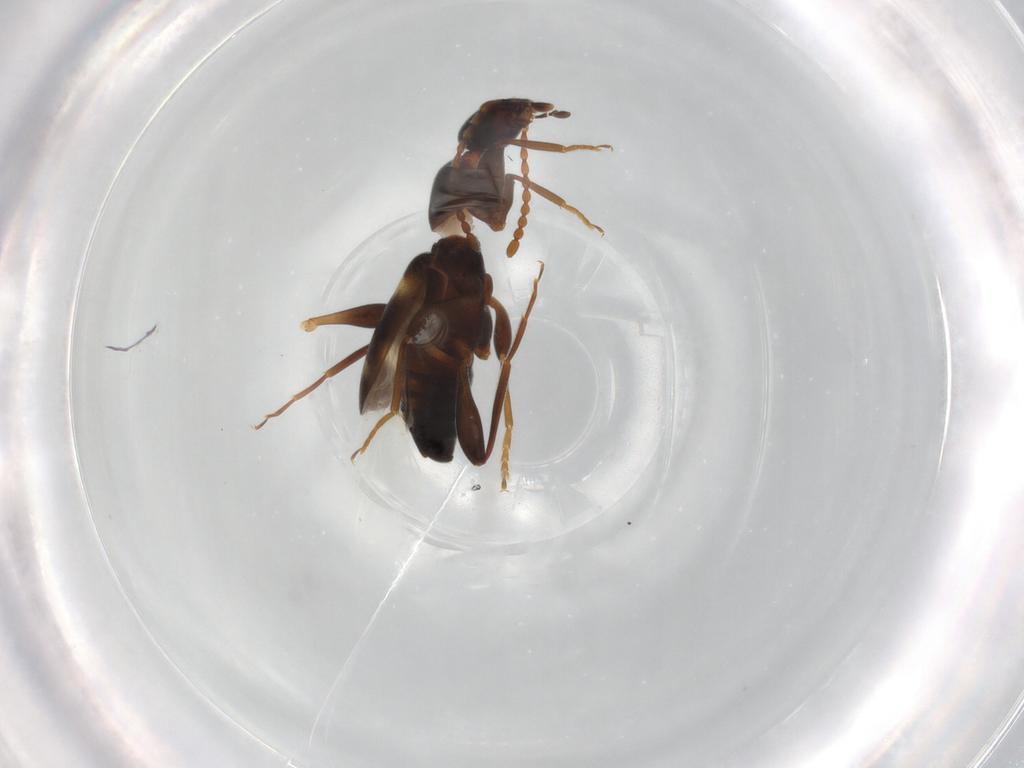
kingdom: Animalia
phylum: Arthropoda
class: Insecta
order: Coleoptera
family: Anthicidae
